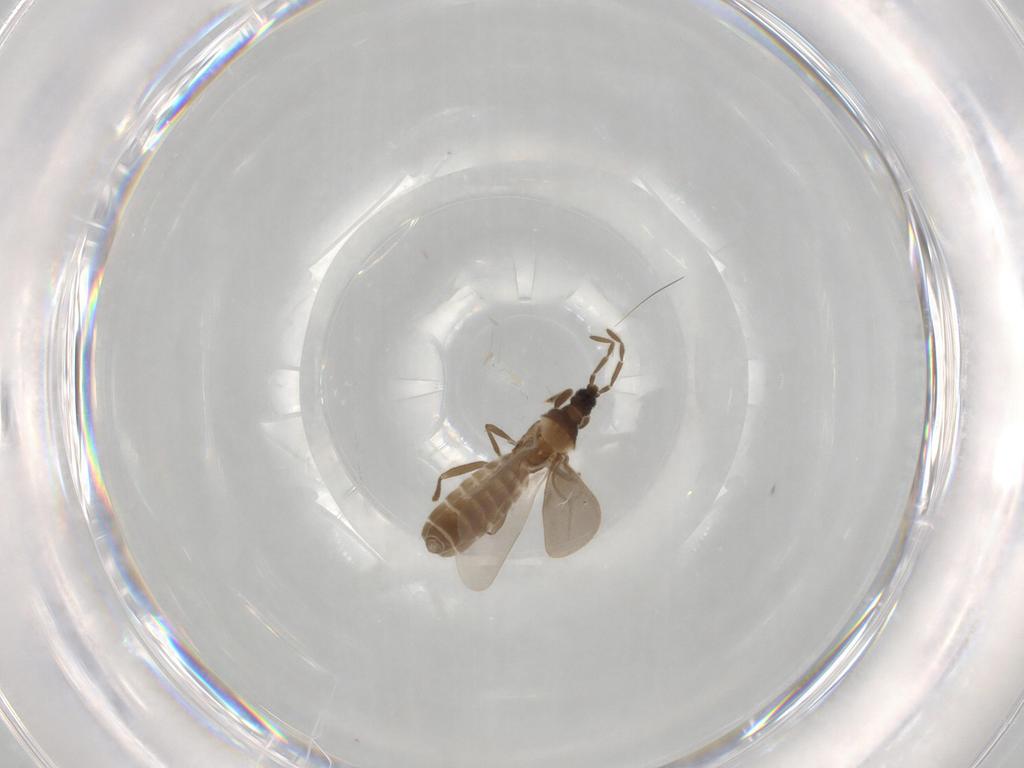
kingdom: Animalia
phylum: Arthropoda
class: Insecta
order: Hemiptera
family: Enicocephalidae
